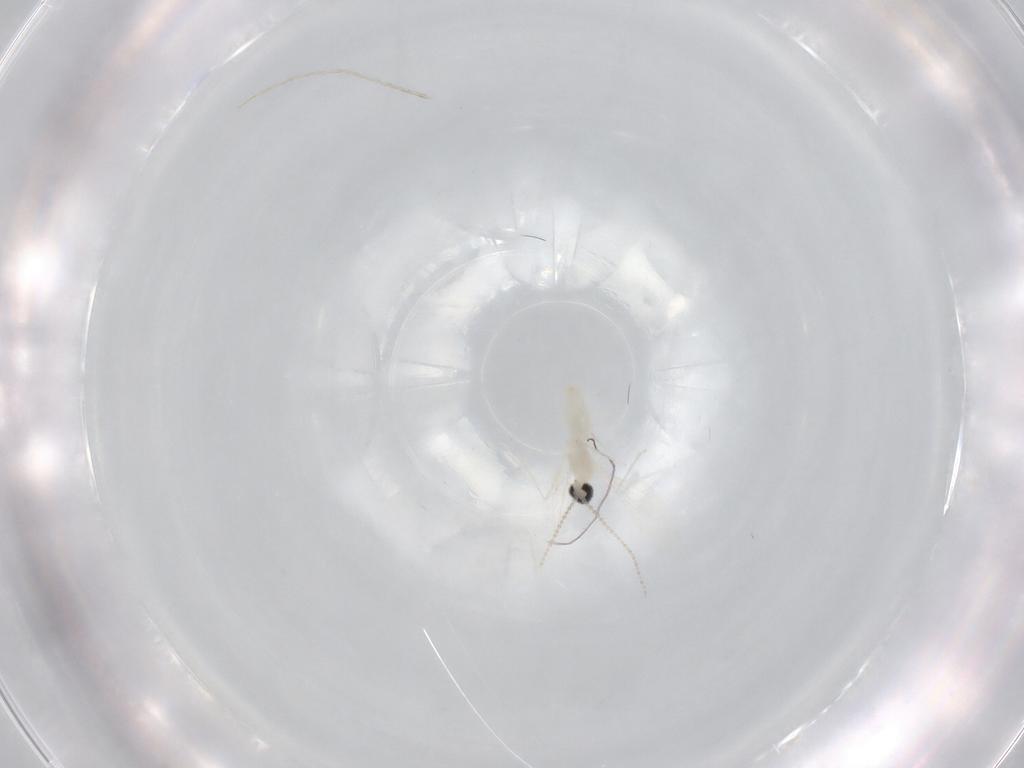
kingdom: Animalia
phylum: Arthropoda
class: Insecta
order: Diptera
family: Cecidomyiidae
